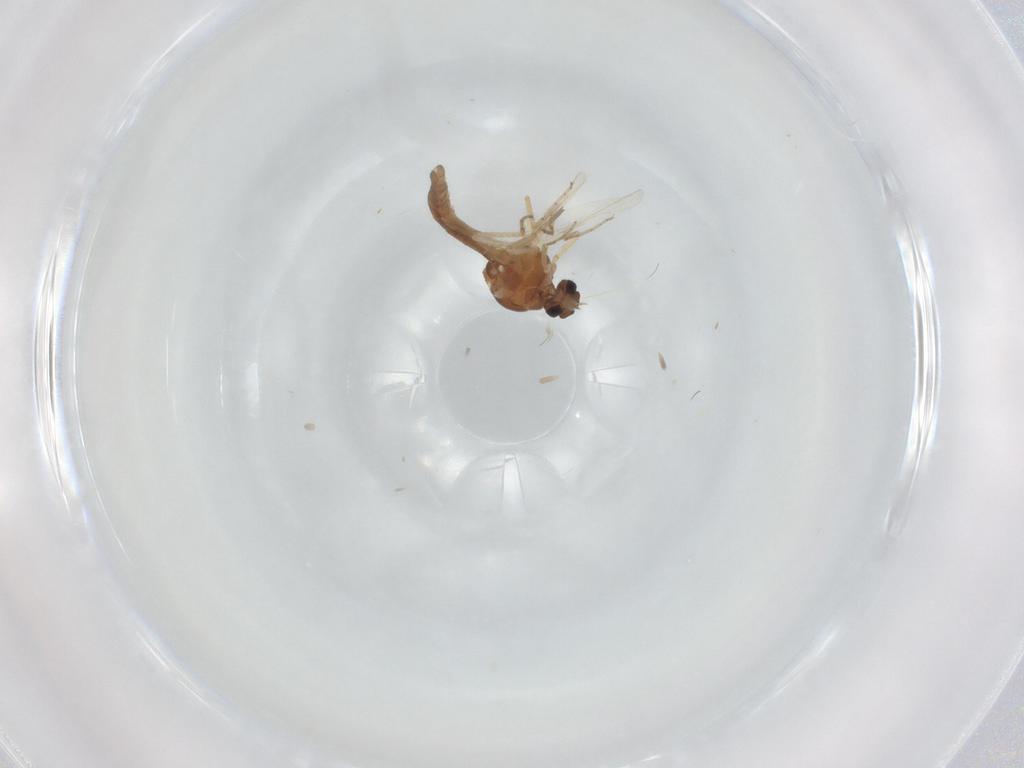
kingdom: Animalia
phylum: Arthropoda
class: Insecta
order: Diptera
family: Ceratopogonidae
